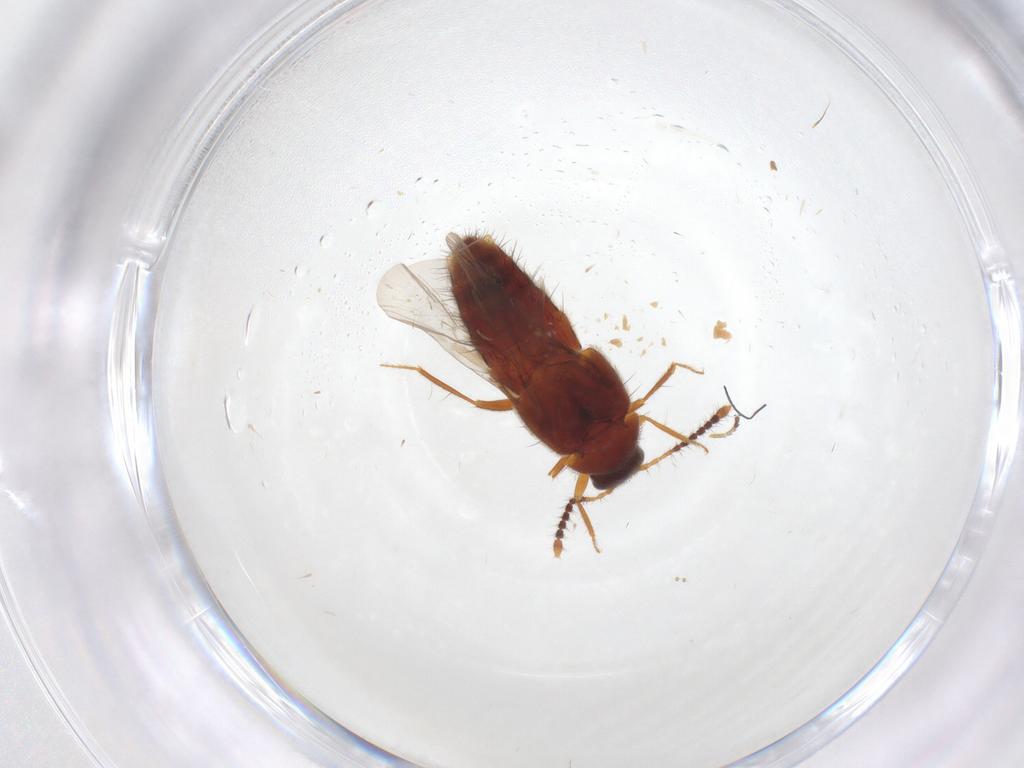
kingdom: Animalia
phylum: Arthropoda
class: Insecta
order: Coleoptera
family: Staphylinidae
